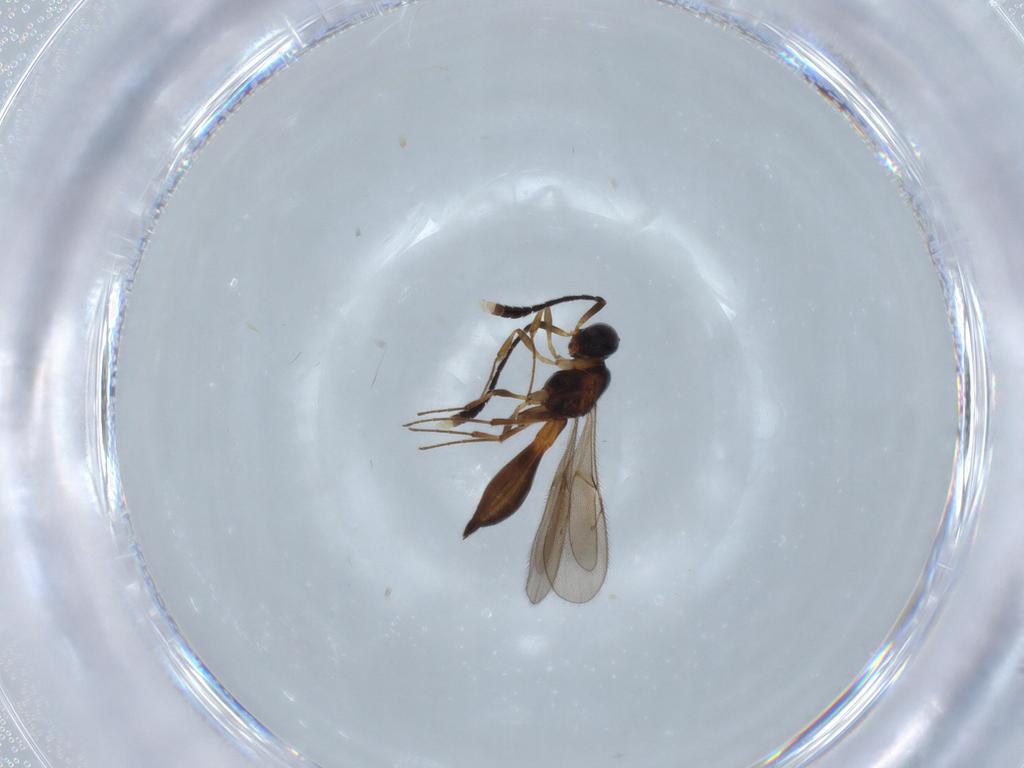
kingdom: Animalia
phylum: Arthropoda
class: Insecta
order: Hymenoptera
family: Scelionidae
